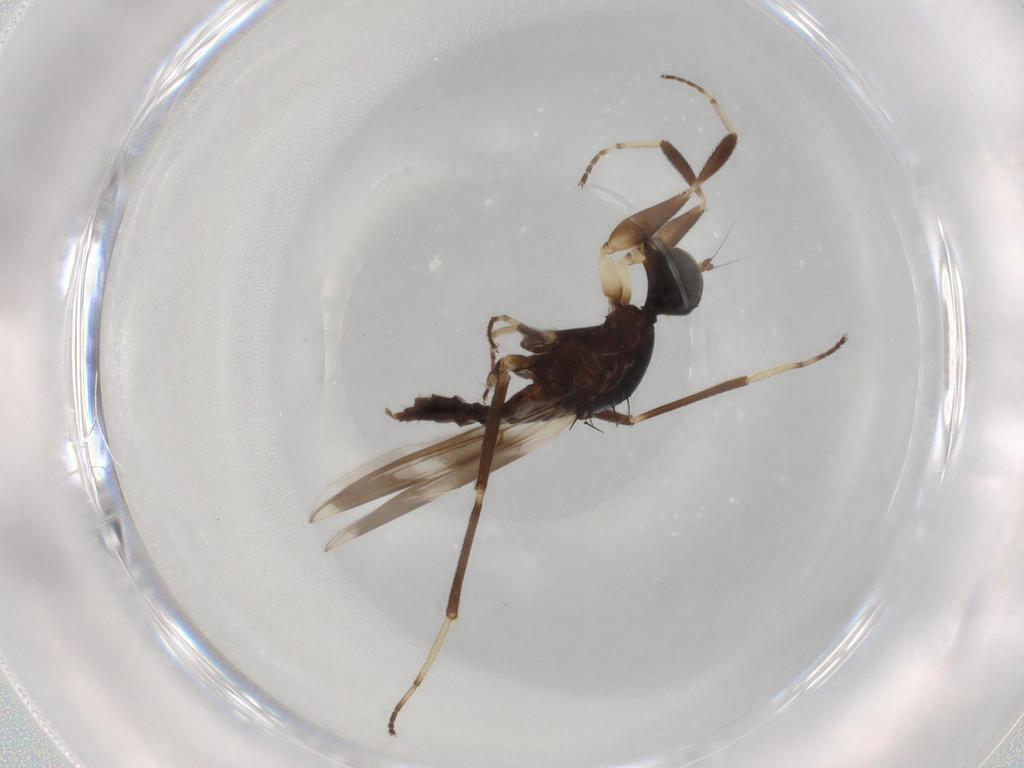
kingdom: Animalia
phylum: Arthropoda
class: Insecta
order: Diptera
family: Hybotidae
